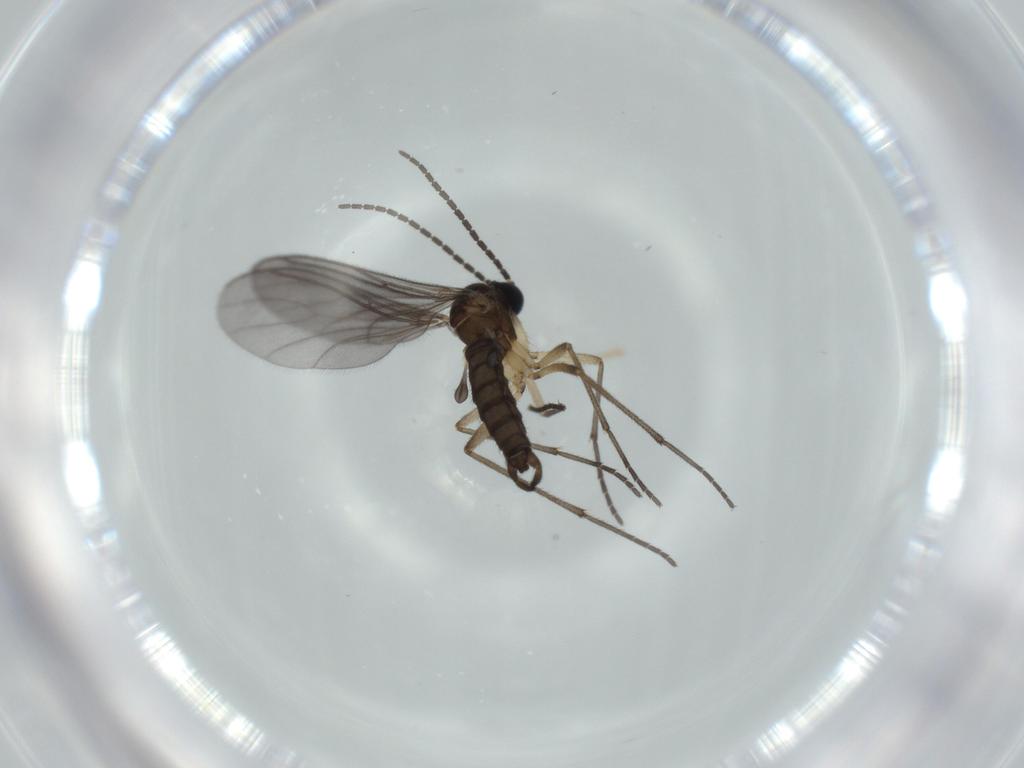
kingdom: Animalia
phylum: Arthropoda
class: Insecta
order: Diptera
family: Sciaridae
